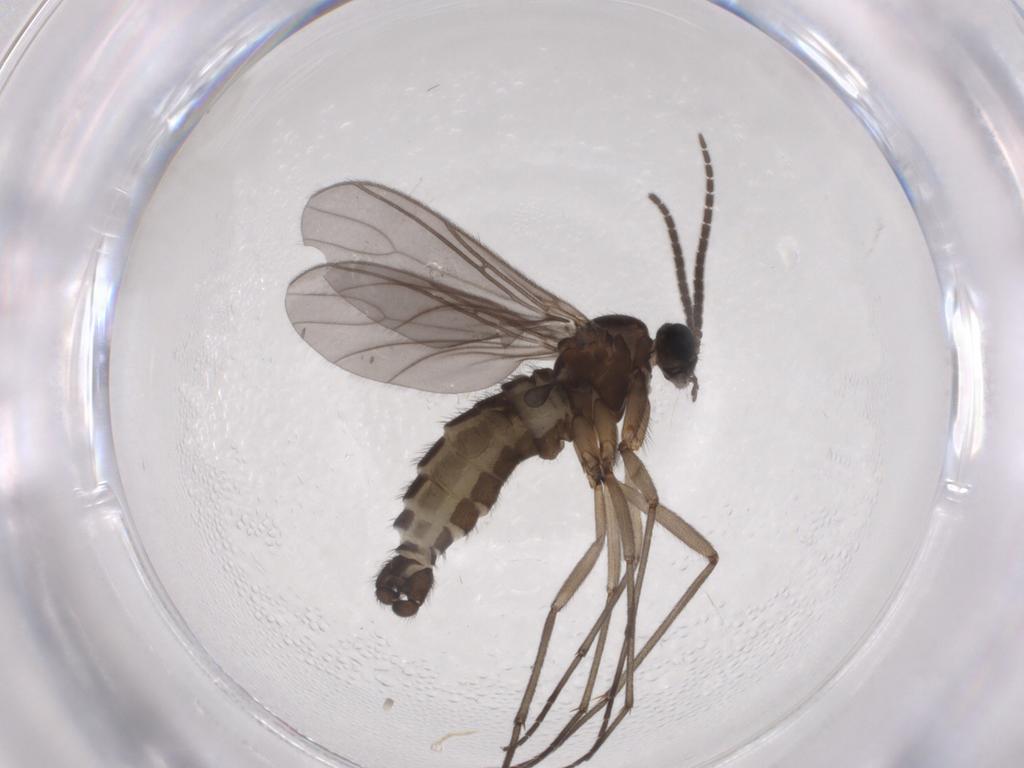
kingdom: Animalia
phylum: Arthropoda
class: Insecta
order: Diptera
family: Sciaridae
